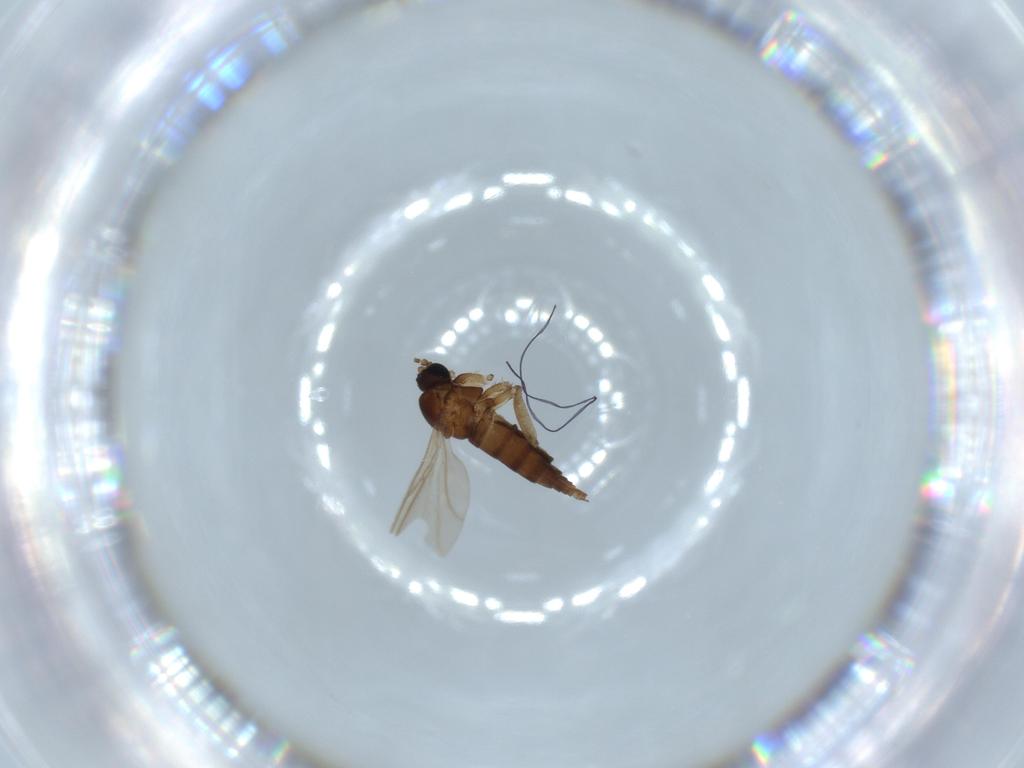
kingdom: Animalia
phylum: Arthropoda
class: Insecta
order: Diptera
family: Sciaridae
